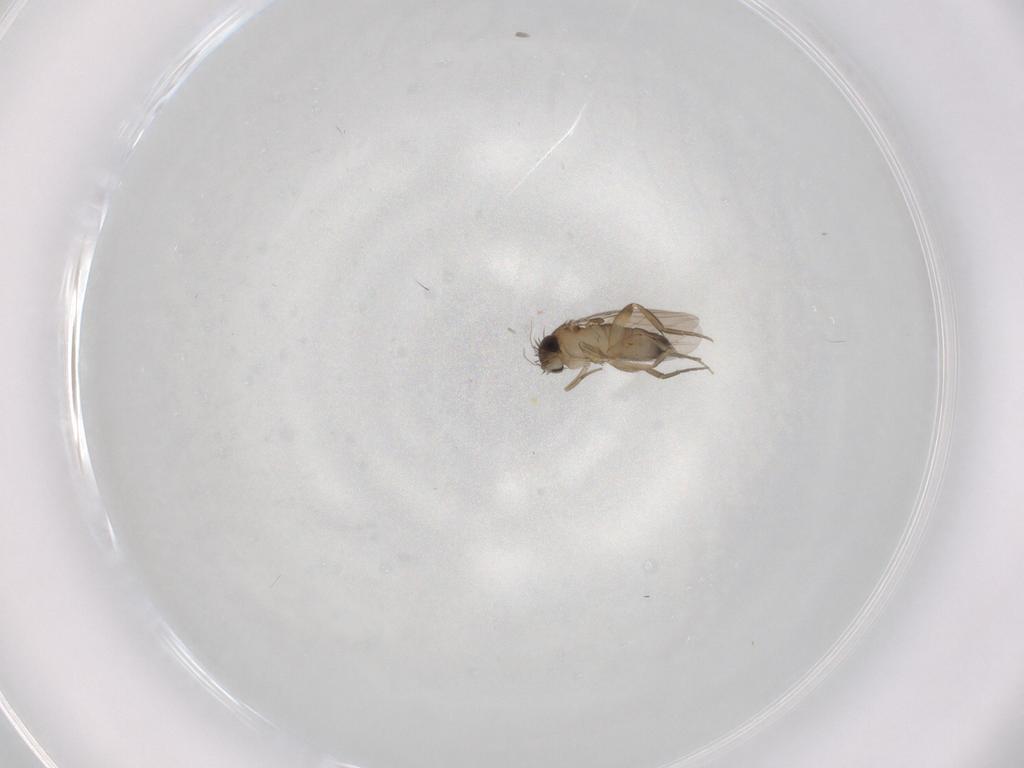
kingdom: Animalia
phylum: Arthropoda
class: Insecta
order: Diptera
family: Phoridae
